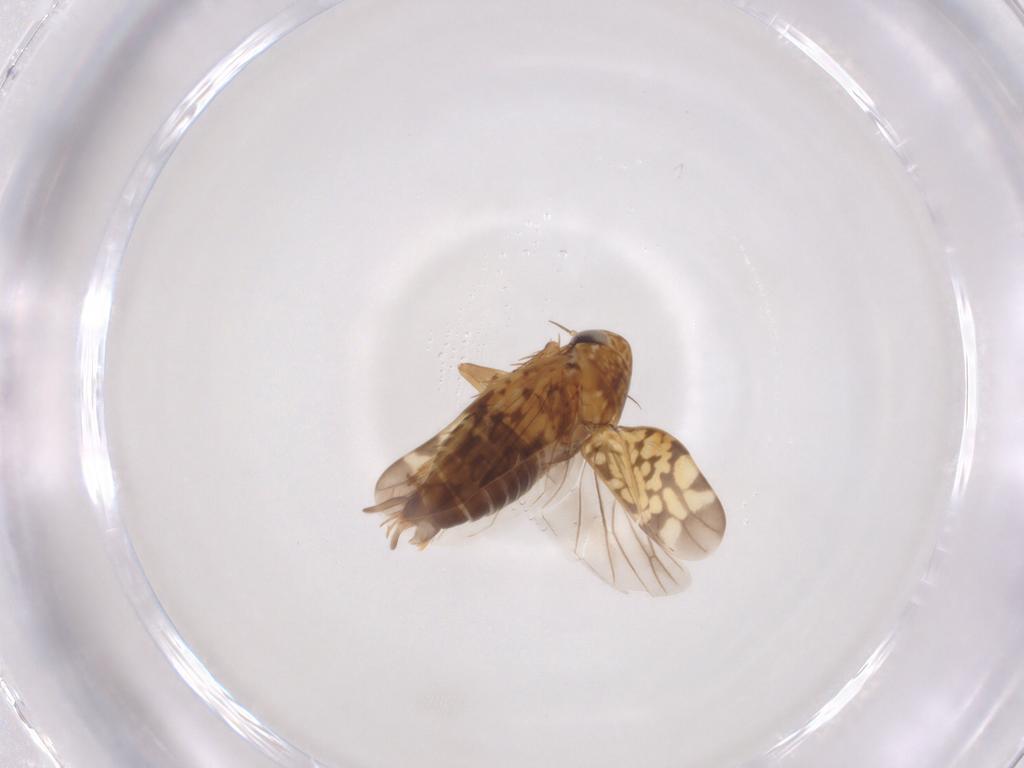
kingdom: Animalia
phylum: Arthropoda
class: Insecta
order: Hemiptera
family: Cicadellidae
